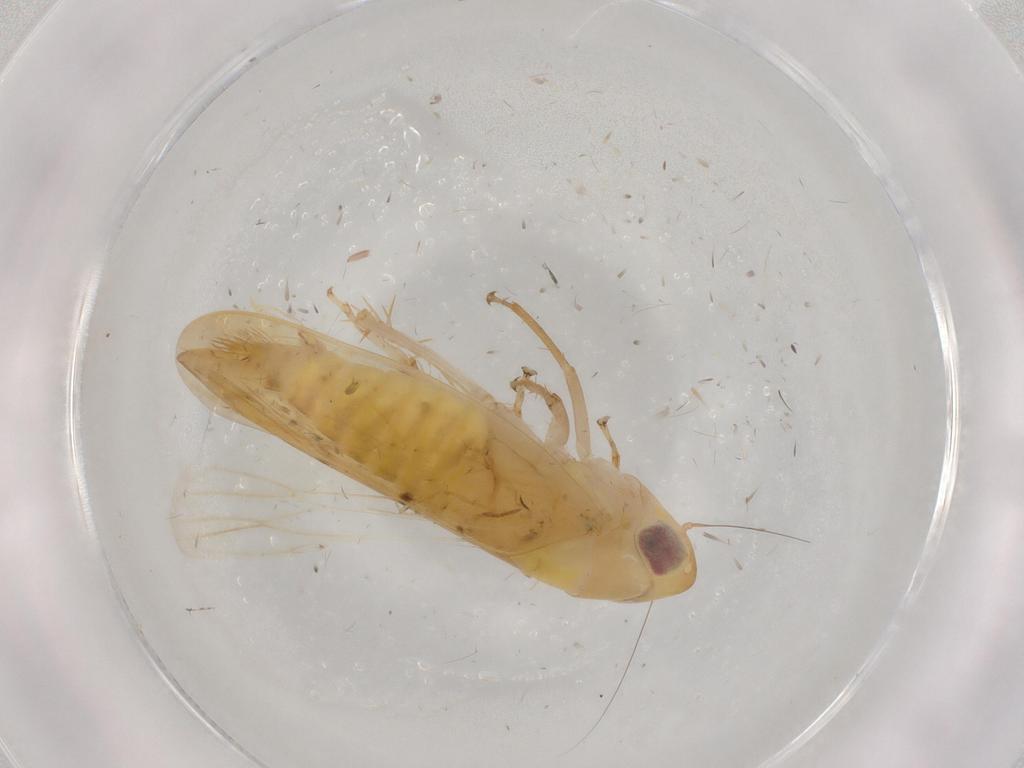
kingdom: Animalia
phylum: Arthropoda
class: Insecta
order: Hemiptera
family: Cicadellidae
